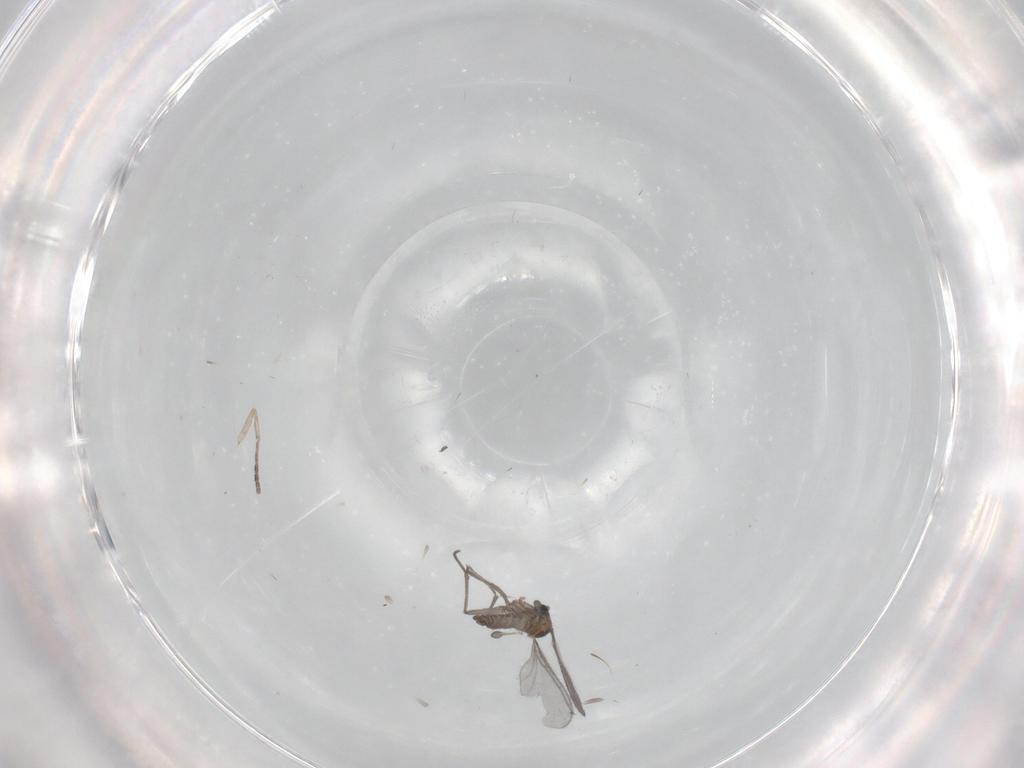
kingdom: Animalia
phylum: Arthropoda
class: Insecta
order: Diptera
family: Sciaridae
